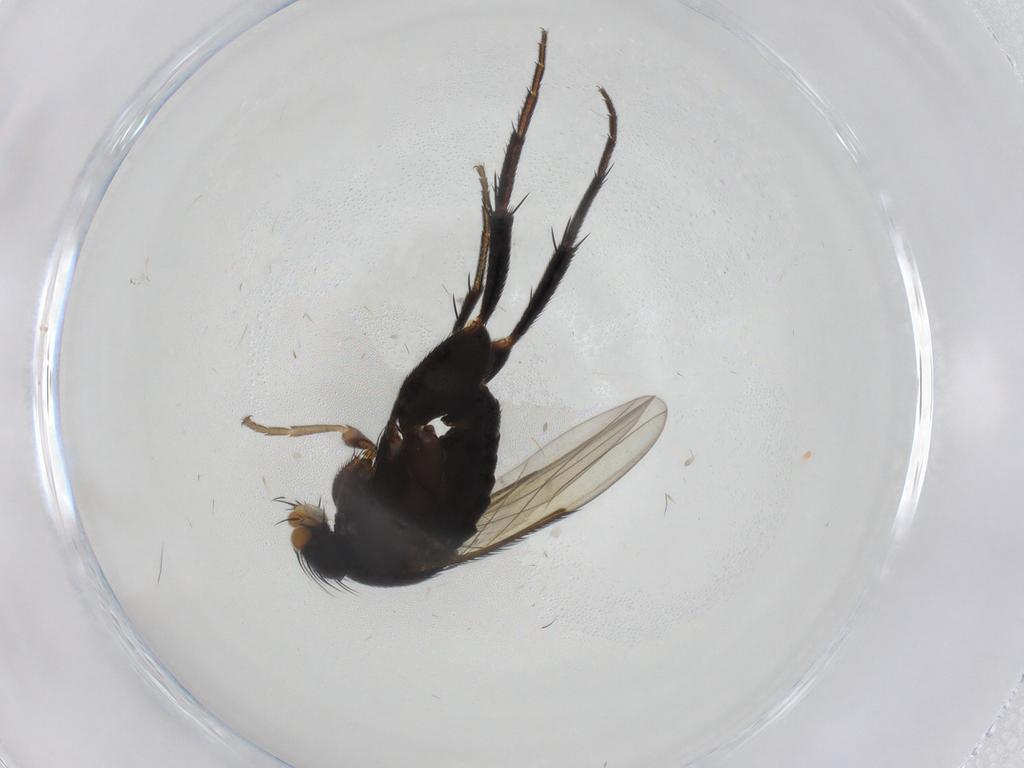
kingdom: Animalia
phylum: Arthropoda
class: Insecta
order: Diptera
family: Phoridae
